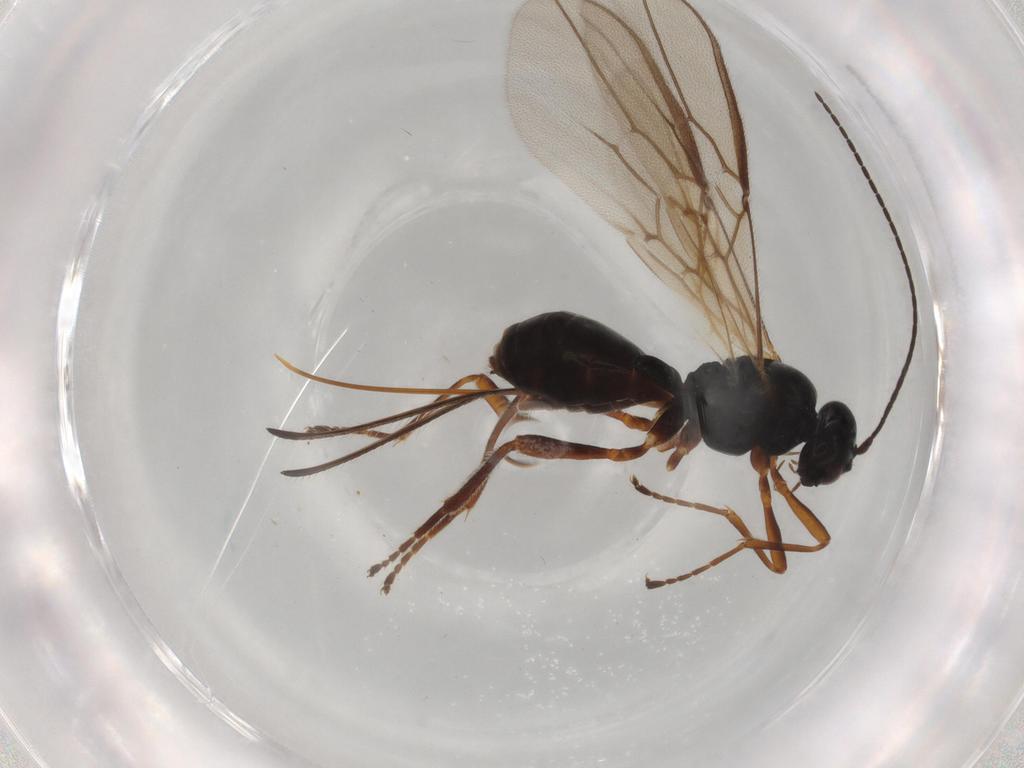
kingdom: Animalia
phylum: Arthropoda
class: Insecta
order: Hymenoptera
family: Braconidae
